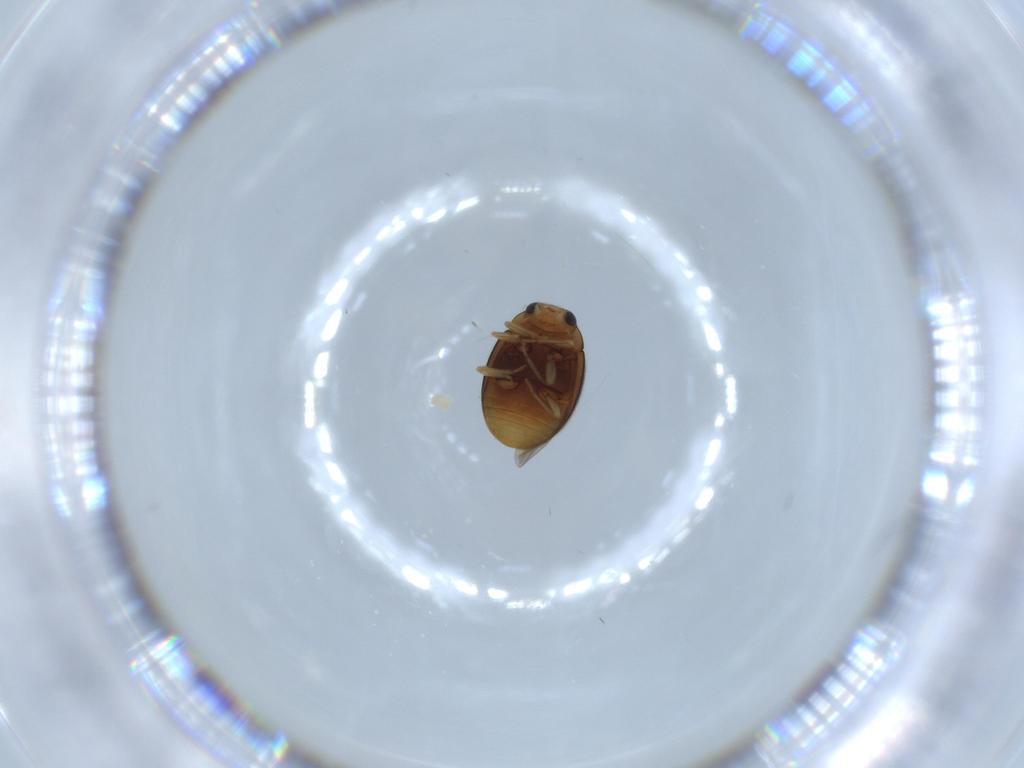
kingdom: Animalia
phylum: Arthropoda
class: Insecta
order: Coleoptera
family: Coccinellidae
